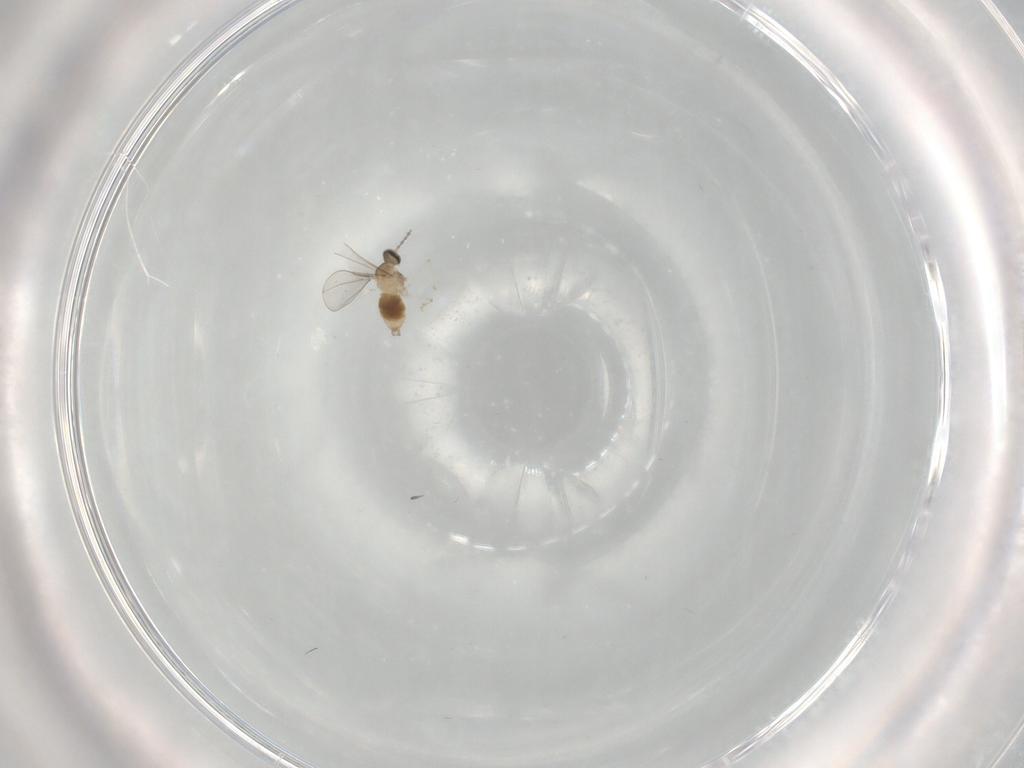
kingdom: Animalia
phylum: Arthropoda
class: Insecta
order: Diptera
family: Cecidomyiidae
